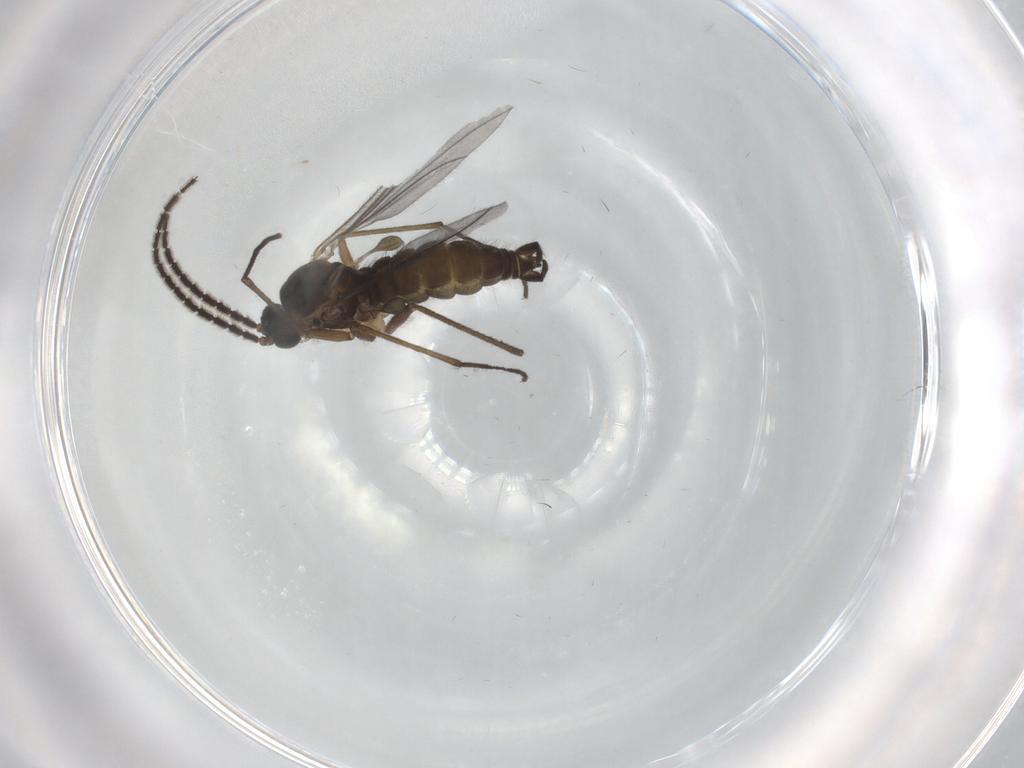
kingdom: Animalia
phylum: Arthropoda
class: Insecta
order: Diptera
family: Sciaridae
